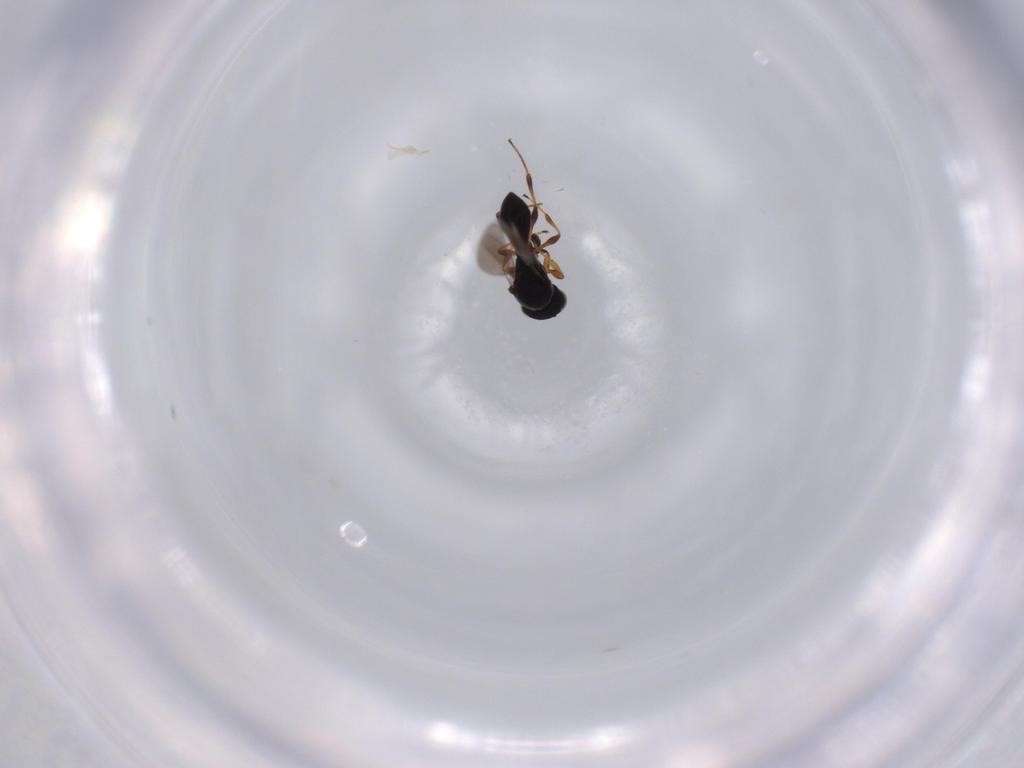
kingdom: Animalia
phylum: Arthropoda
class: Insecta
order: Hymenoptera
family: Platygastridae
